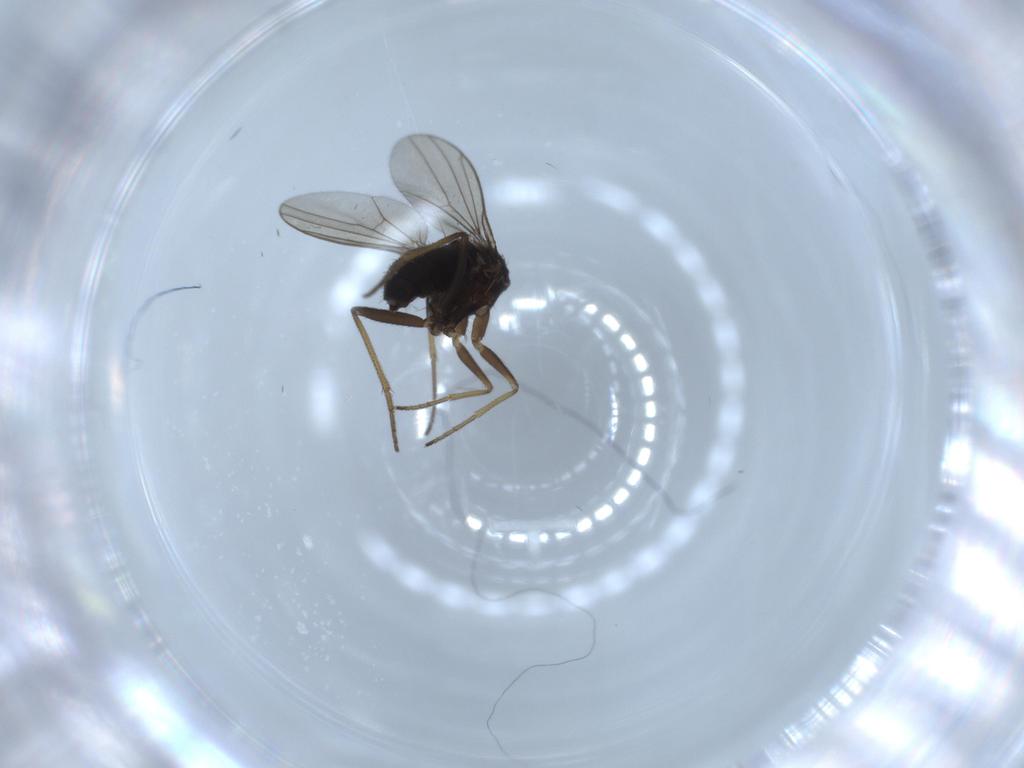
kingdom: Animalia
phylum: Arthropoda
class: Insecta
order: Diptera
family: Dolichopodidae
